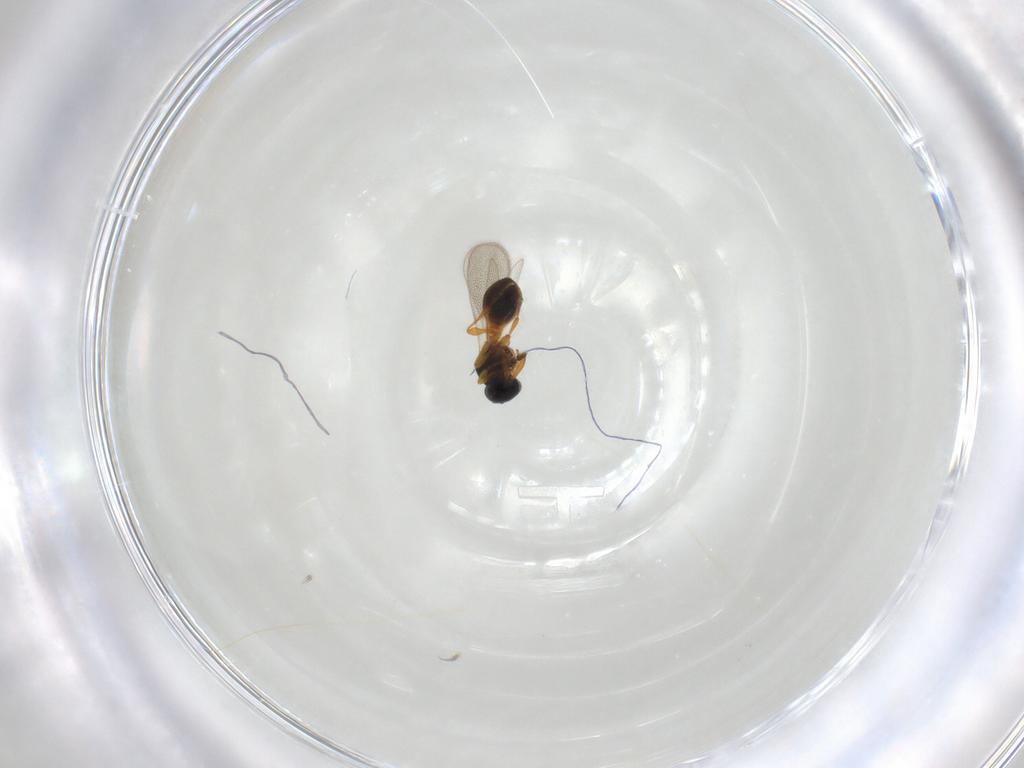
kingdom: Animalia
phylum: Arthropoda
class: Insecta
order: Hymenoptera
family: Platygastridae
